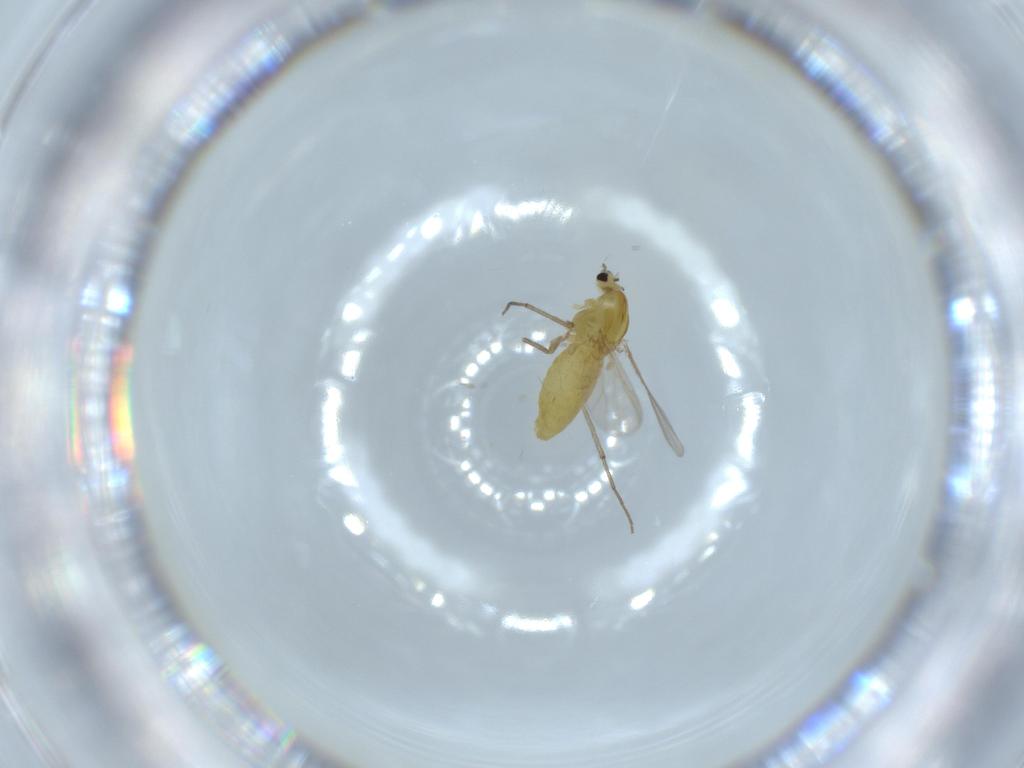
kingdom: Animalia
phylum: Arthropoda
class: Insecta
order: Diptera
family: Chironomidae
